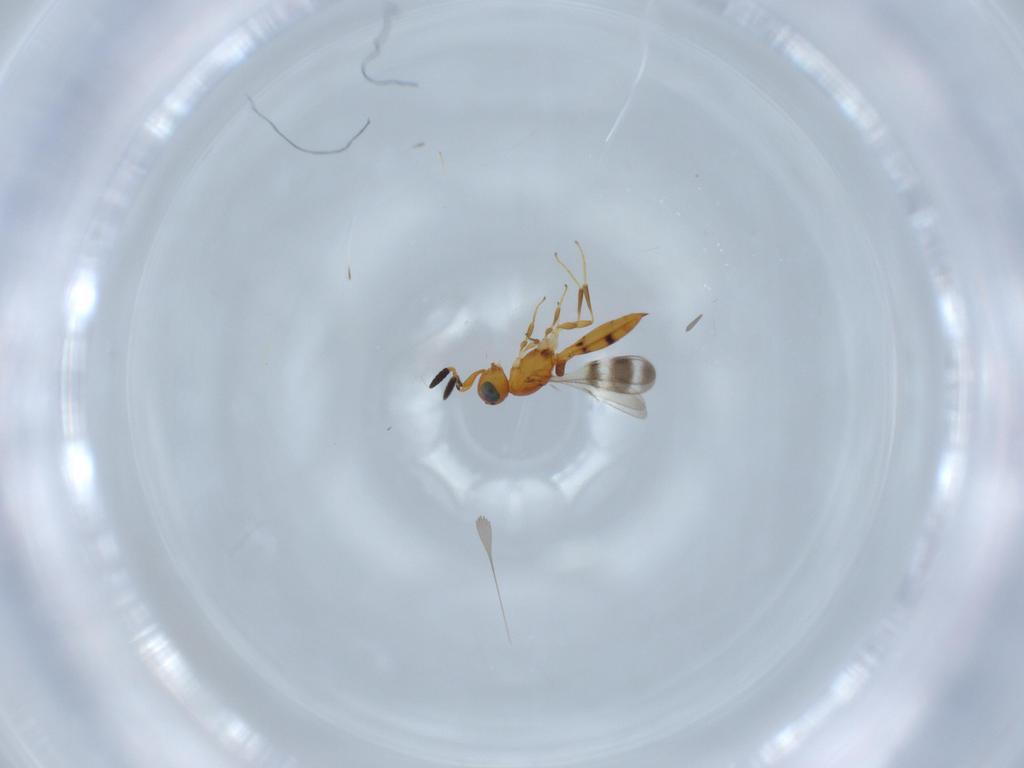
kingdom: Animalia
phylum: Arthropoda
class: Insecta
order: Hymenoptera
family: Scelionidae
